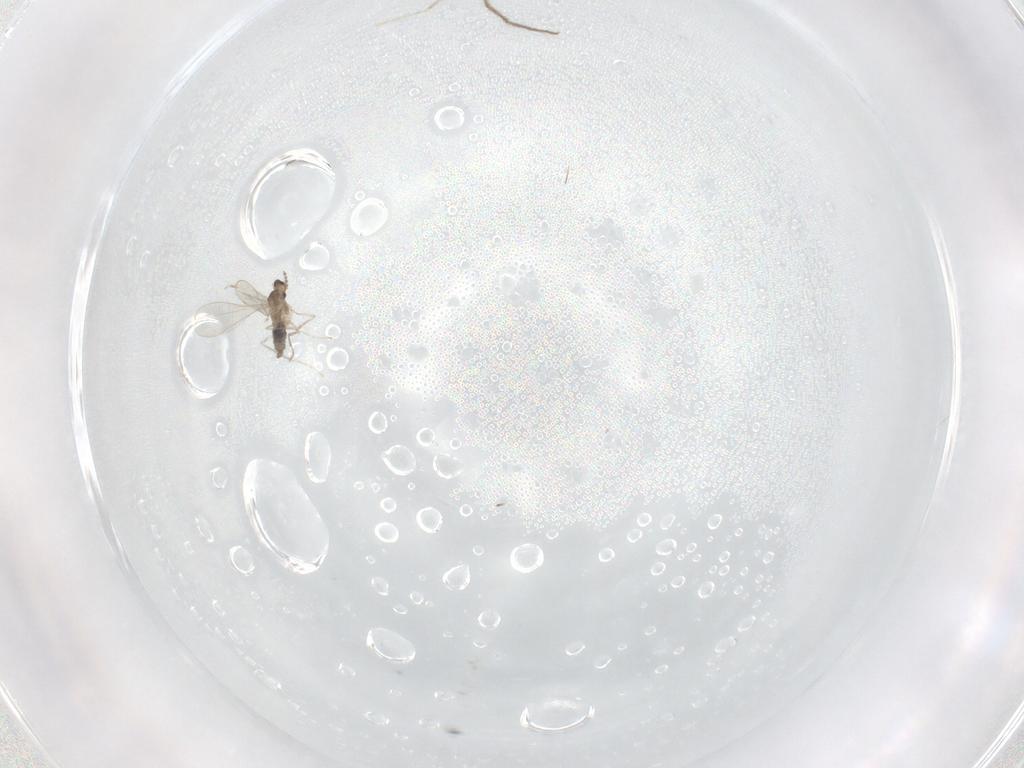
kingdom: Animalia
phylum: Arthropoda
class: Insecta
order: Diptera
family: Cecidomyiidae
